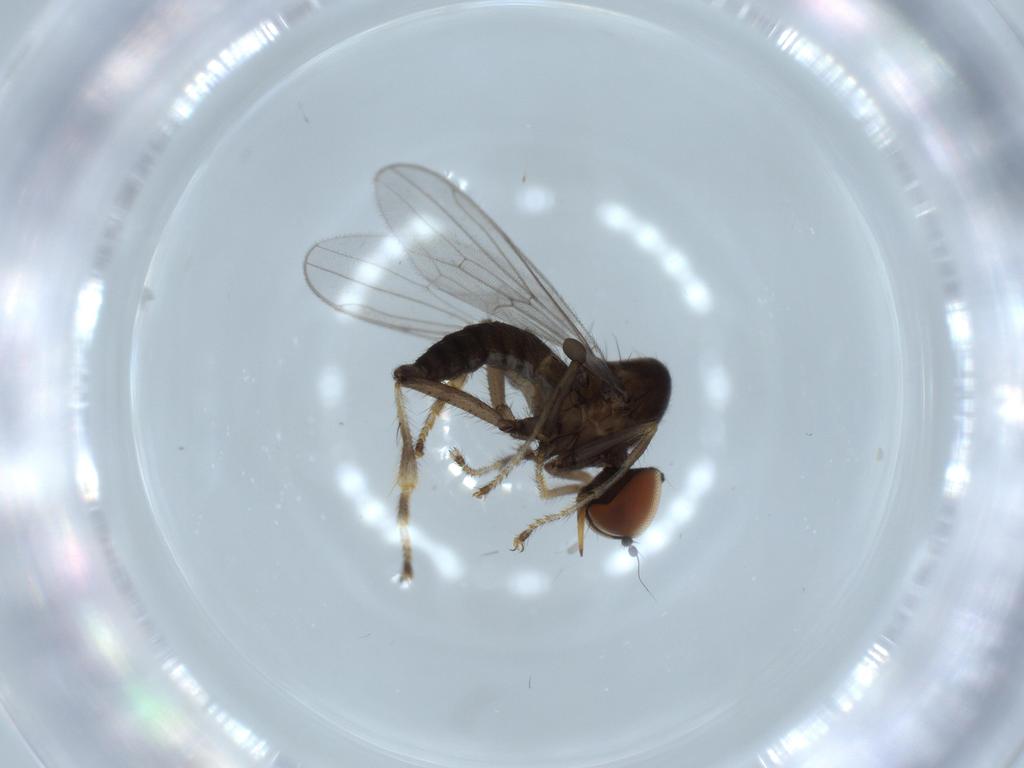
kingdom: Animalia
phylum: Arthropoda
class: Insecta
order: Diptera
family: Hybotidae
